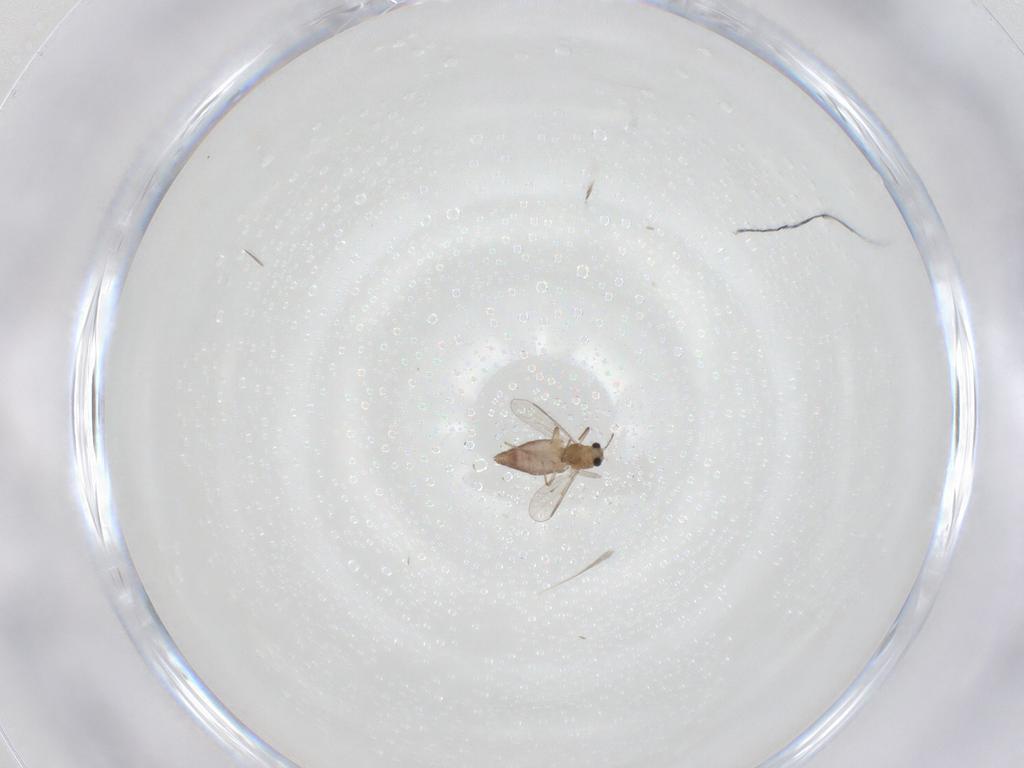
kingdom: Animalia
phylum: Arthropoda
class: Insecta
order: Diptera
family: Chironomidae
